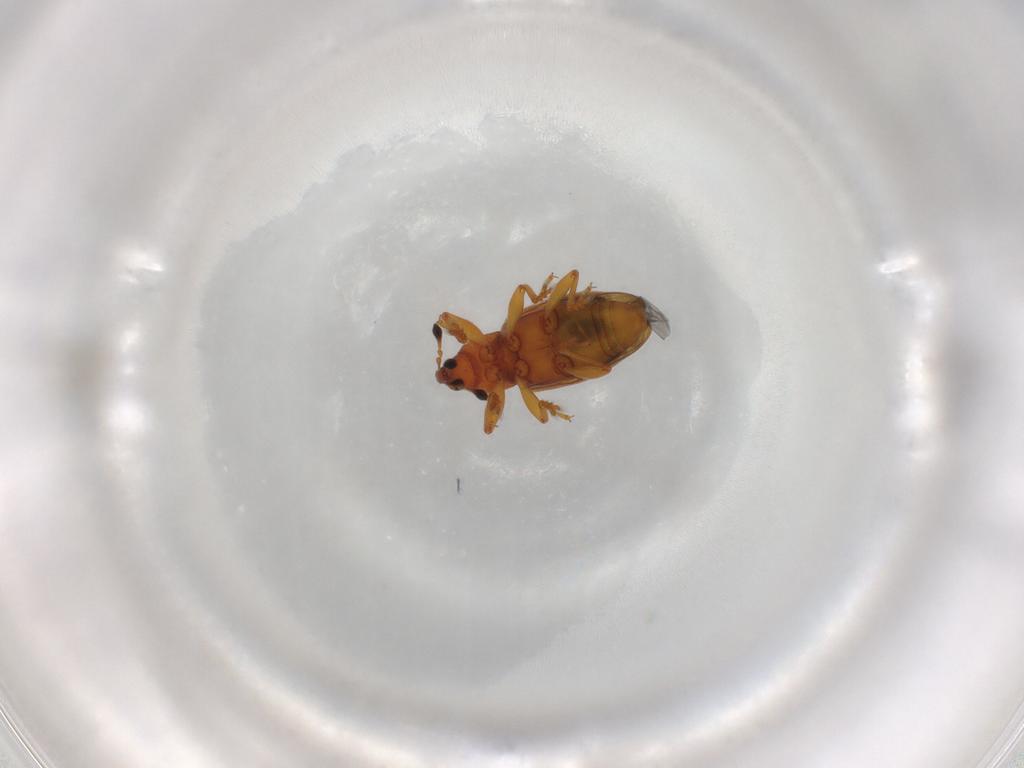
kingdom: Animalia
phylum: Arthropoda
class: Insecta
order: Coleoptera
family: Curculionidae
